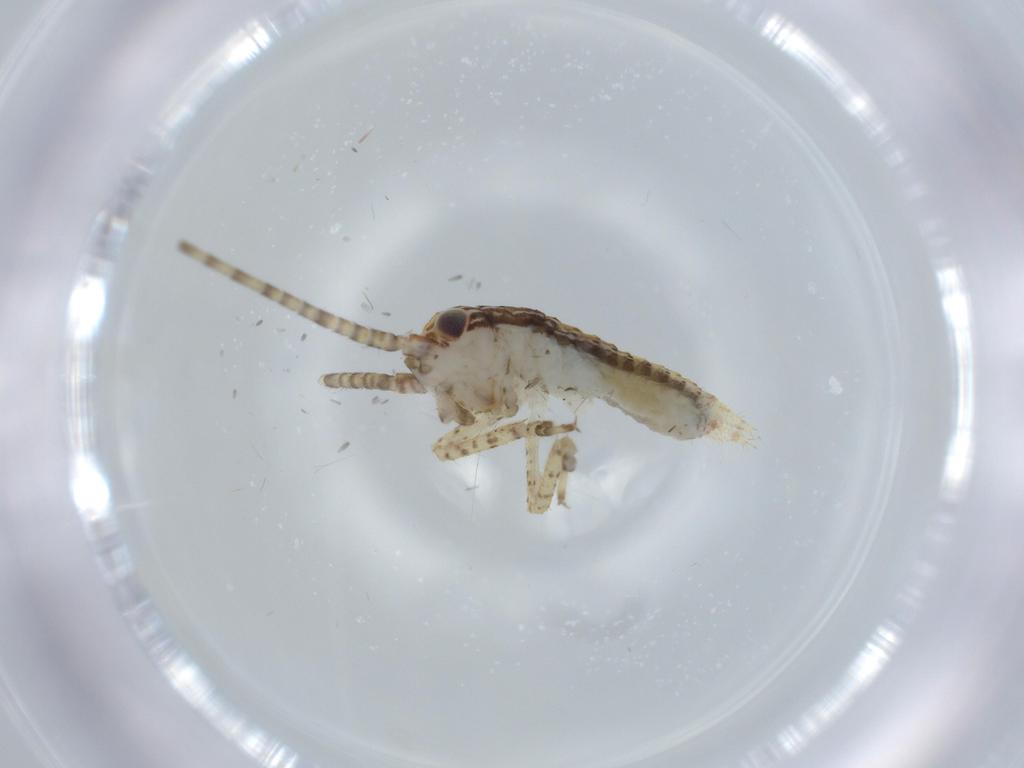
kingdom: Animalia
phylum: Arthropoda
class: Insecta
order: Orthoptera
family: Gryllidae
